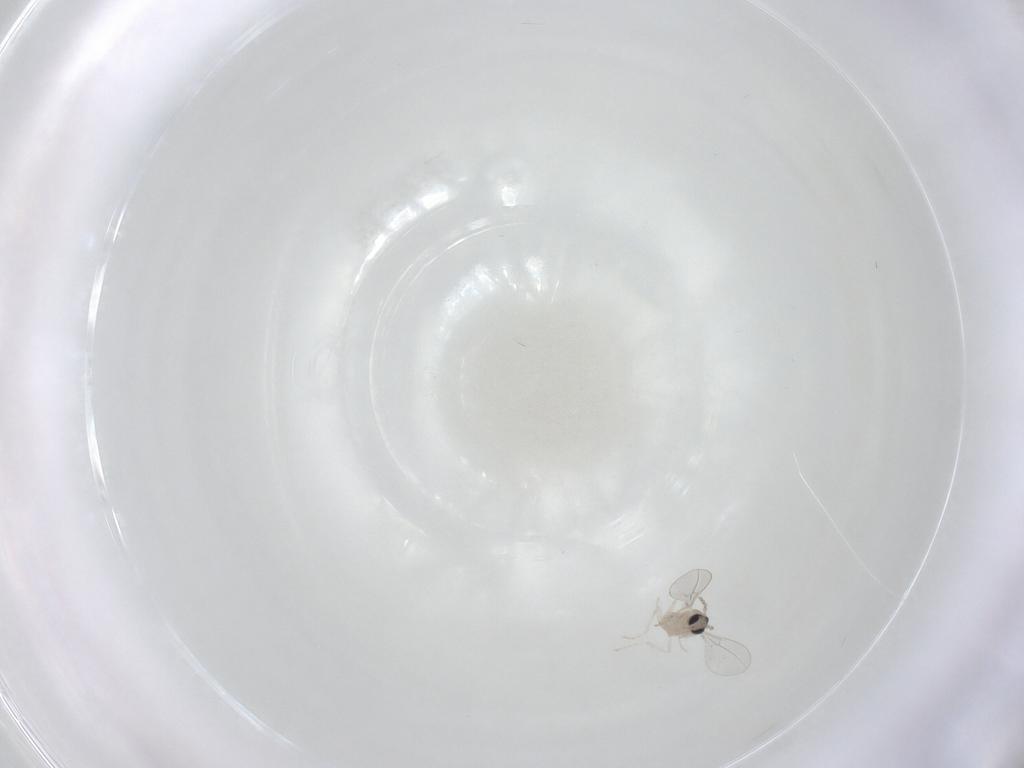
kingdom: Animalia
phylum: Arthropoda
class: Insecta
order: Diptera
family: Cecidomyiidae
